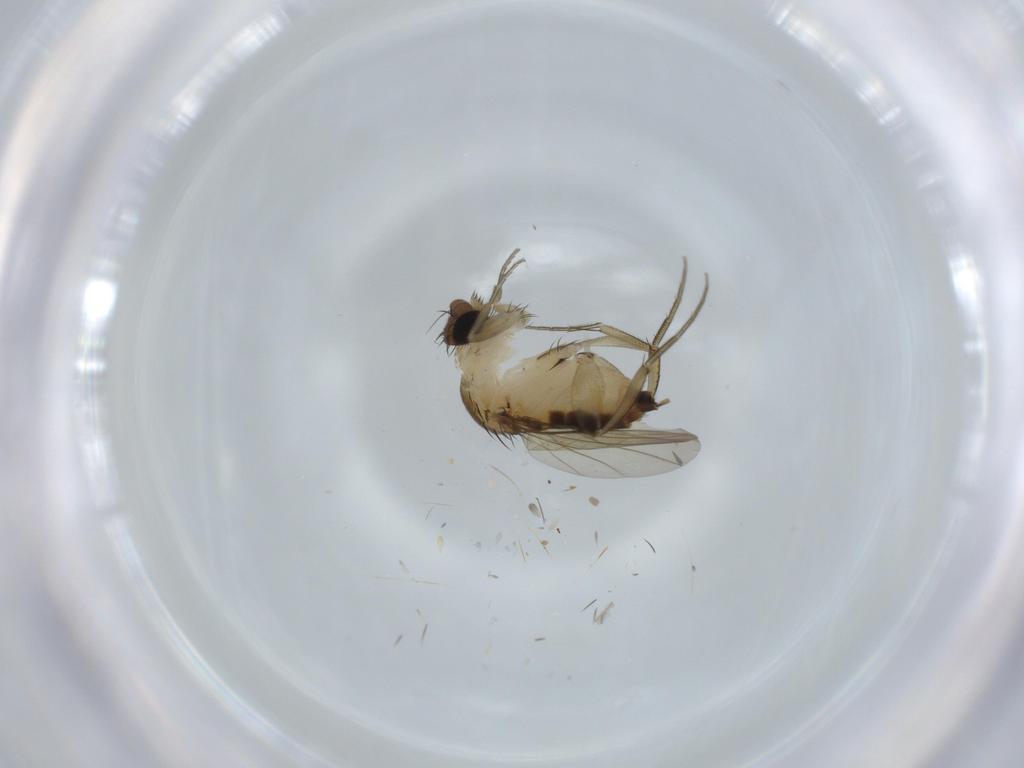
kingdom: Animalia
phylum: Arthropoda
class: Insecta
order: Diptera
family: Phoridae
